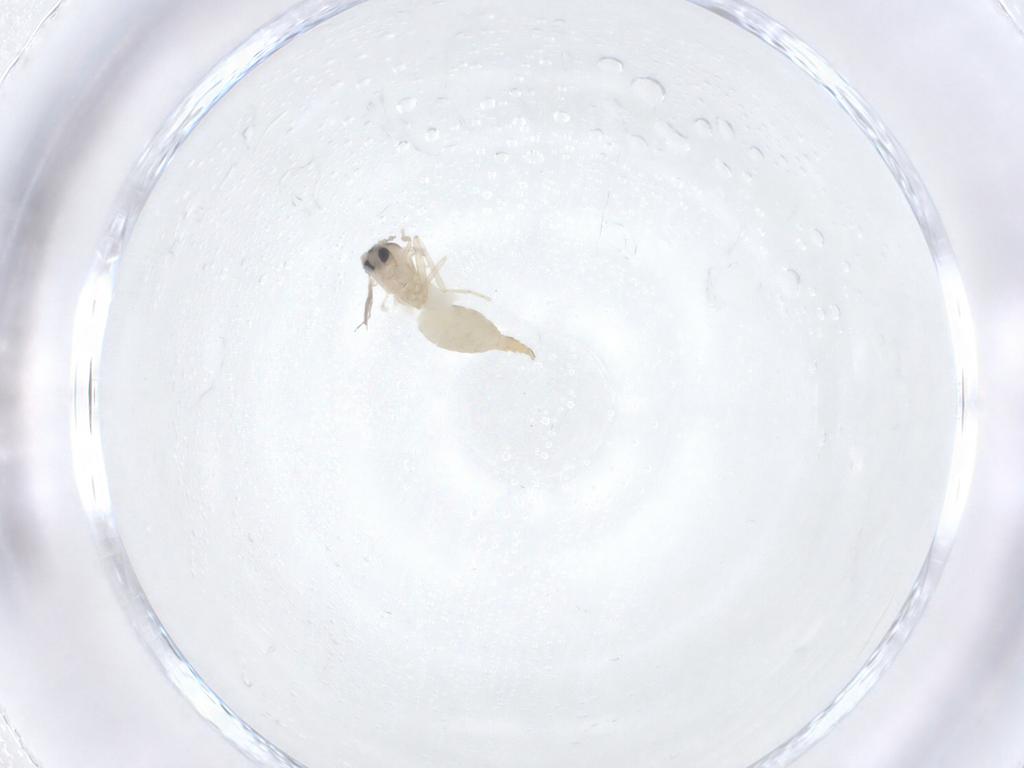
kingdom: Animalia
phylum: Arthropoda
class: Insecta
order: Diptera
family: Cecidomyiidae
